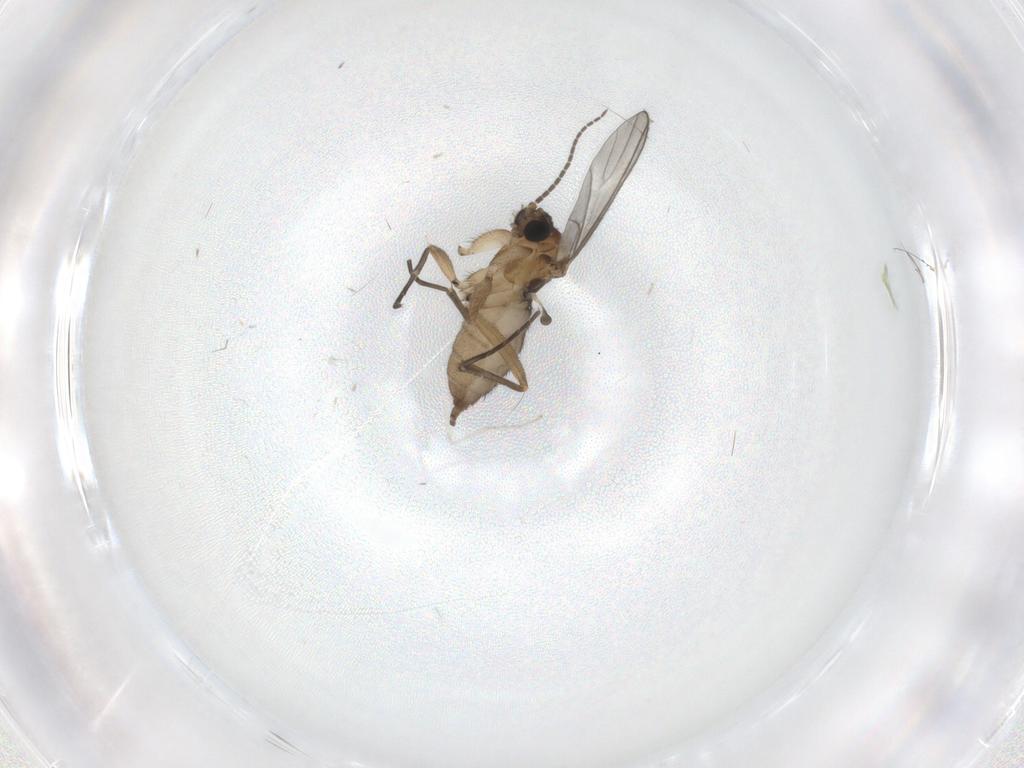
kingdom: Animalia
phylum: Arthropoda
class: Insecta
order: Diptera
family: Sciaridae
